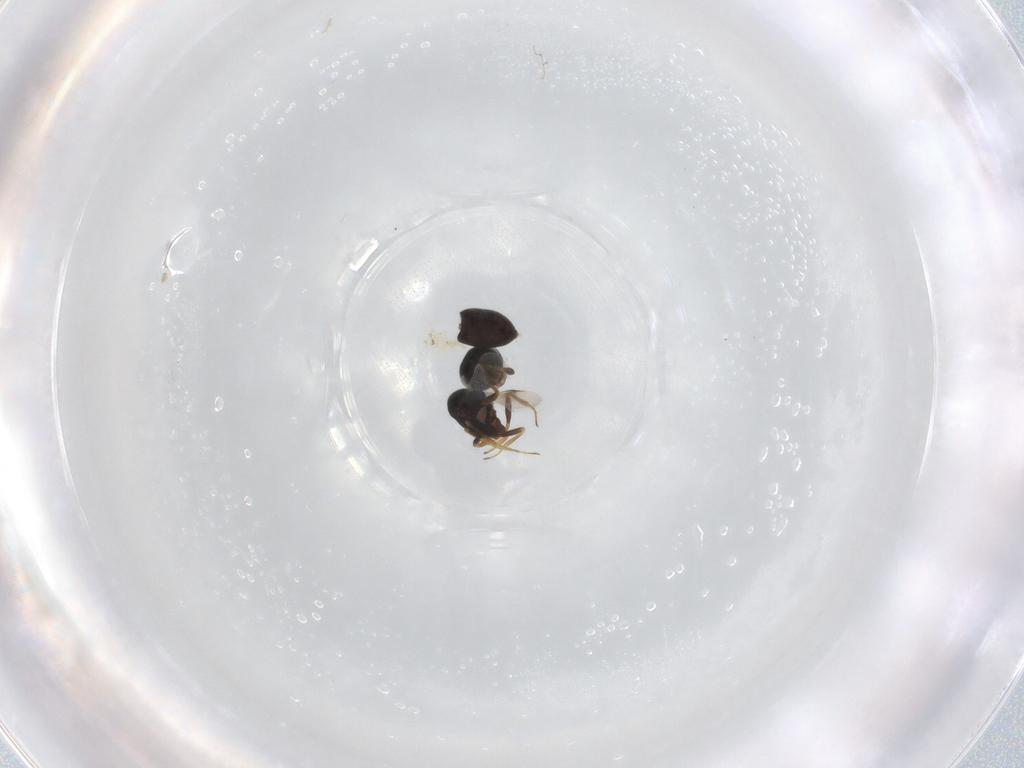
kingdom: Animalia
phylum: Arthropoda
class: Insecta
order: Hymenoptera
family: Scelionidae
